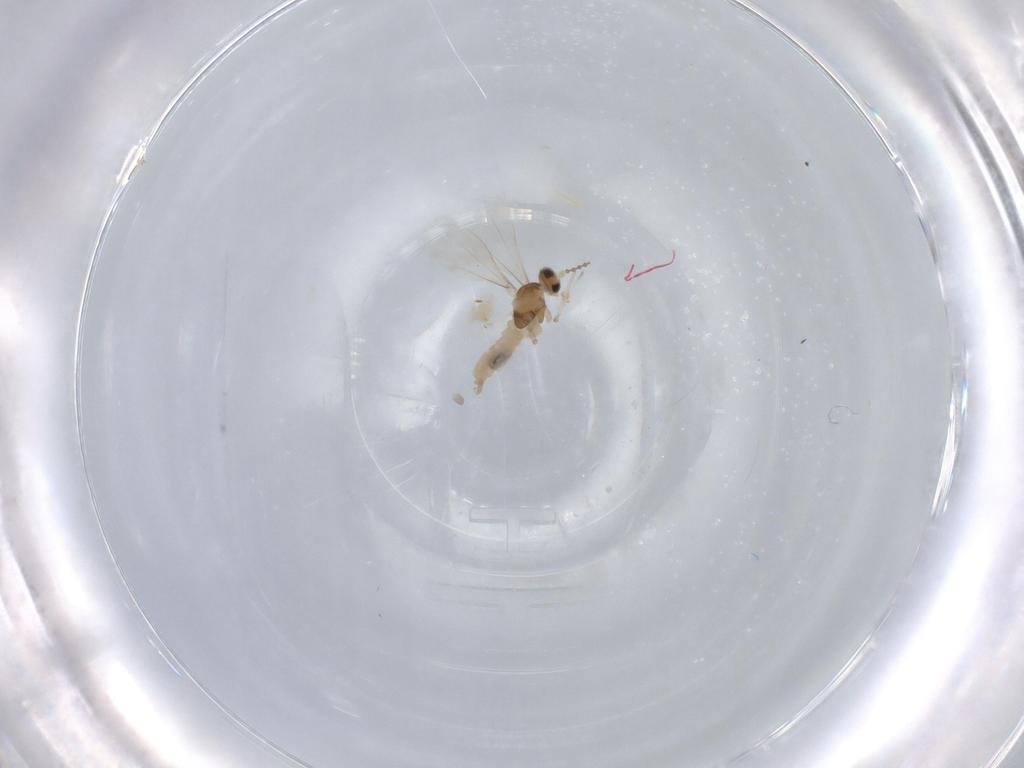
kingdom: Animalia
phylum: Arthropoda
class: Insecta
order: Diptera
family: Cecidomyiidae
